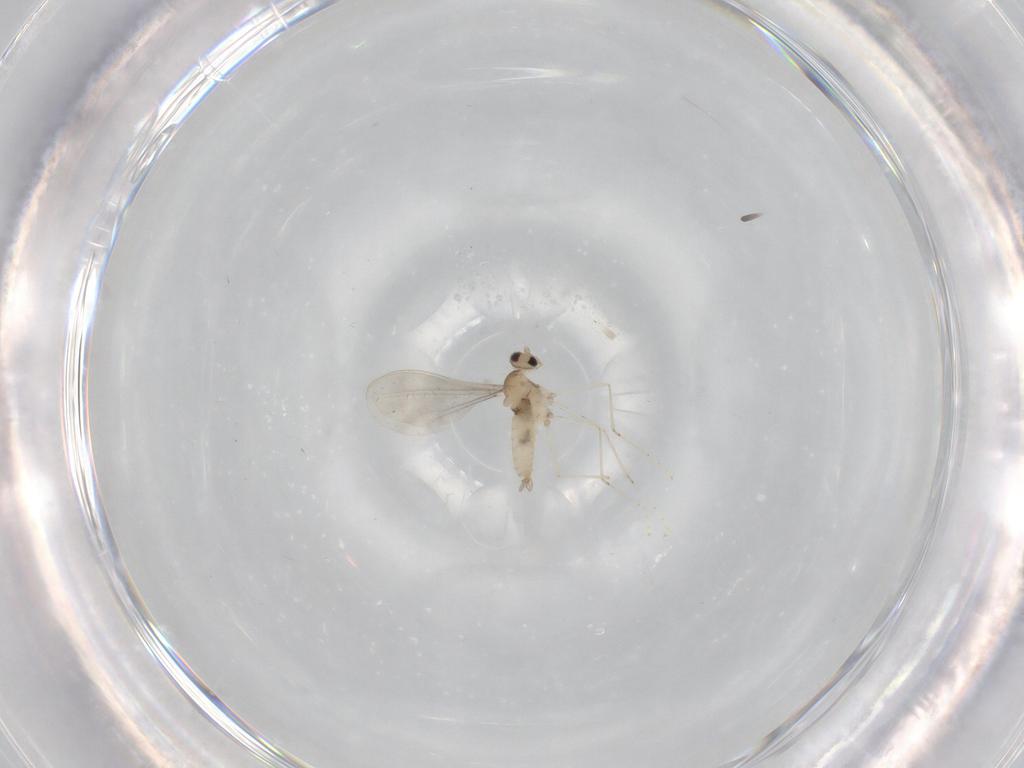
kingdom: Animalia
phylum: Arthropoda
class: Insecta
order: Diptera
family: Cecidomyiidae
